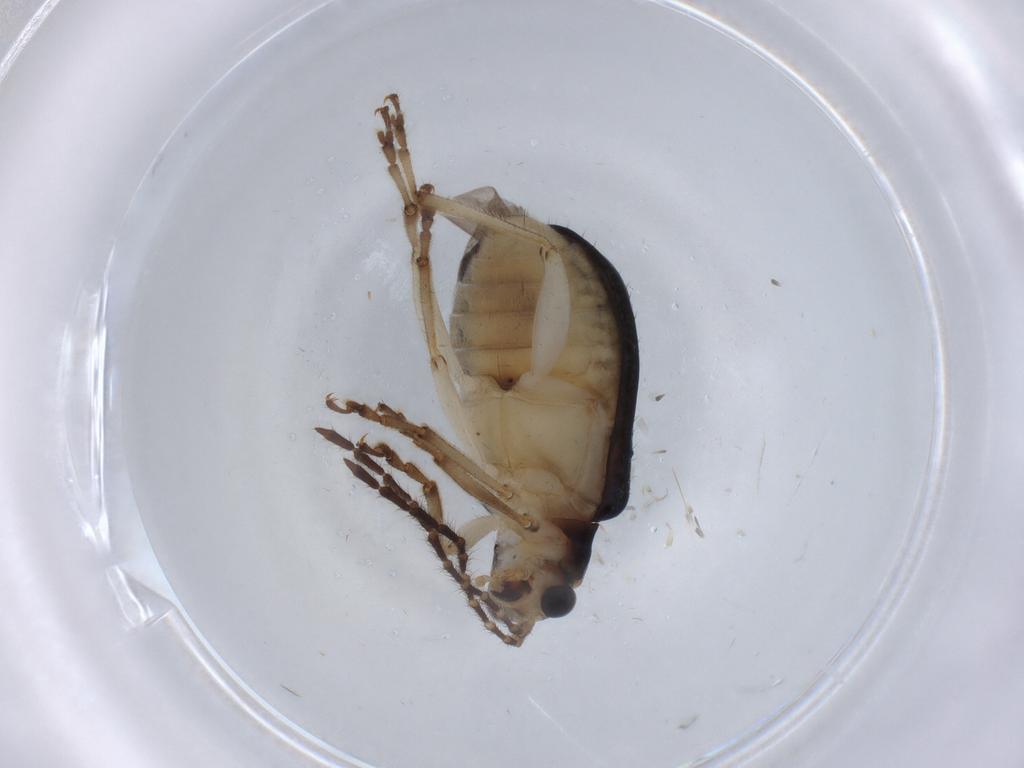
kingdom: Animalia
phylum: Arthropoda
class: Insecta
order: Coleoptera
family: Chrysomelidae
